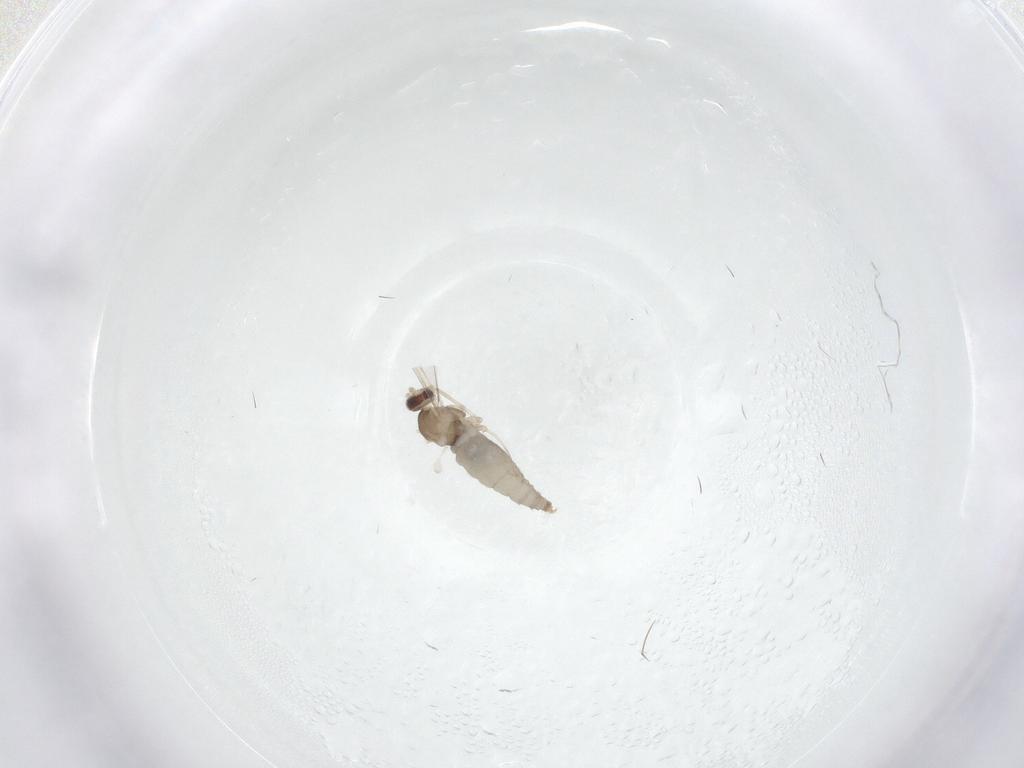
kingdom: Animalia
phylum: Arthropoda
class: Insecta
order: Diptera
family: Cecidomyiidae
